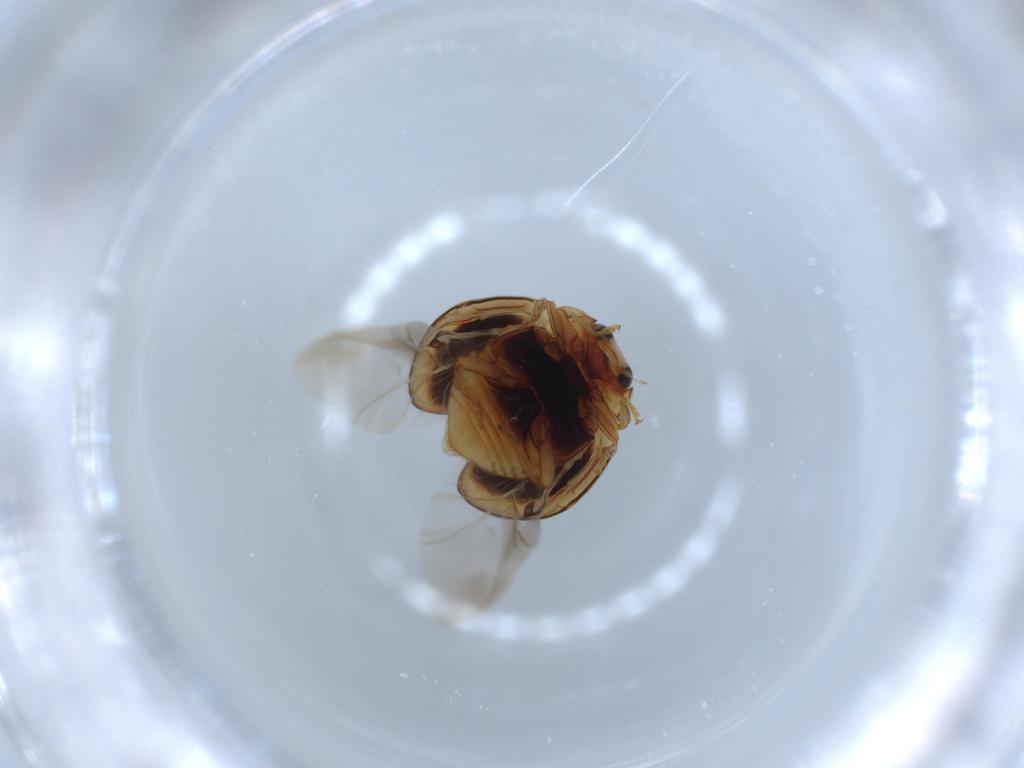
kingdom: Animalia
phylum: Arthropoda
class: Insecta
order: Coleoptera
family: Coccinellidae
